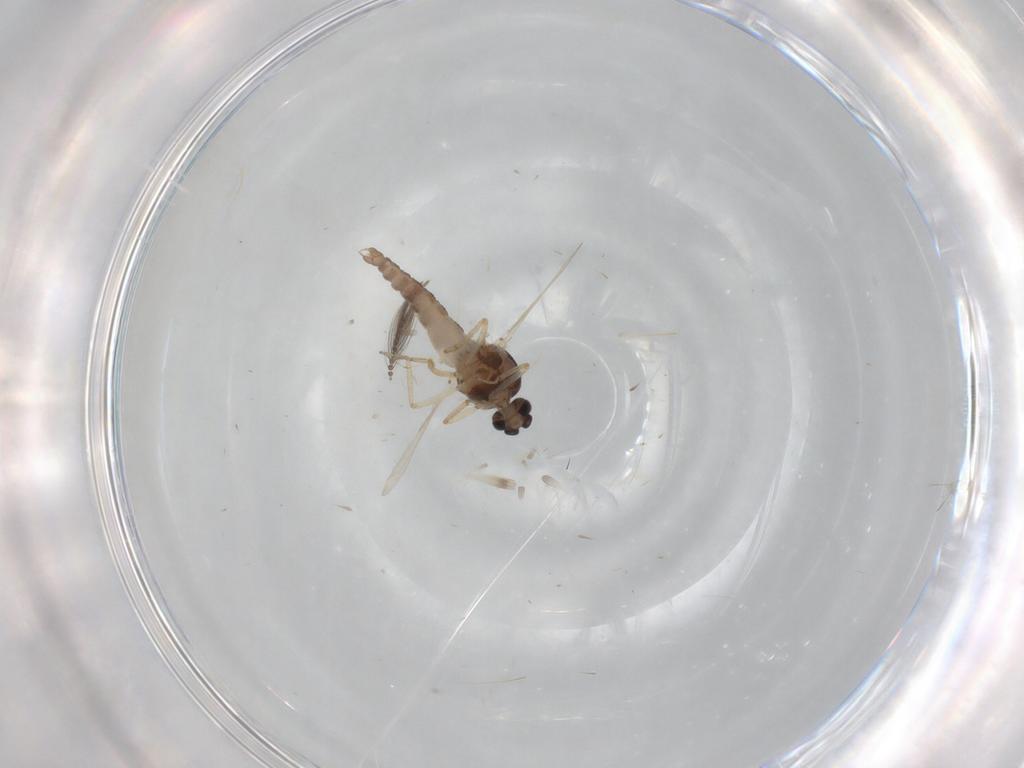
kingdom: Animalia
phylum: Arthropoda
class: Insecta
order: Diptera
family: Ceratopogonidae
